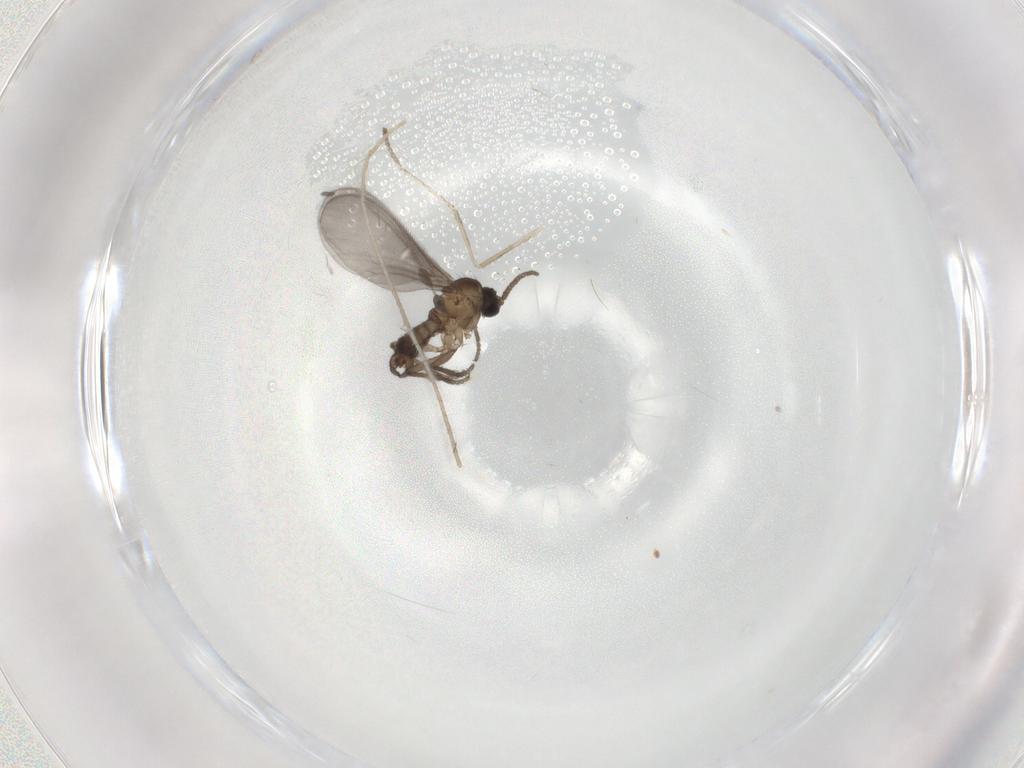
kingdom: Animalia
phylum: Arthropoda
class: Insecta
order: Diptera
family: Sciaridae
